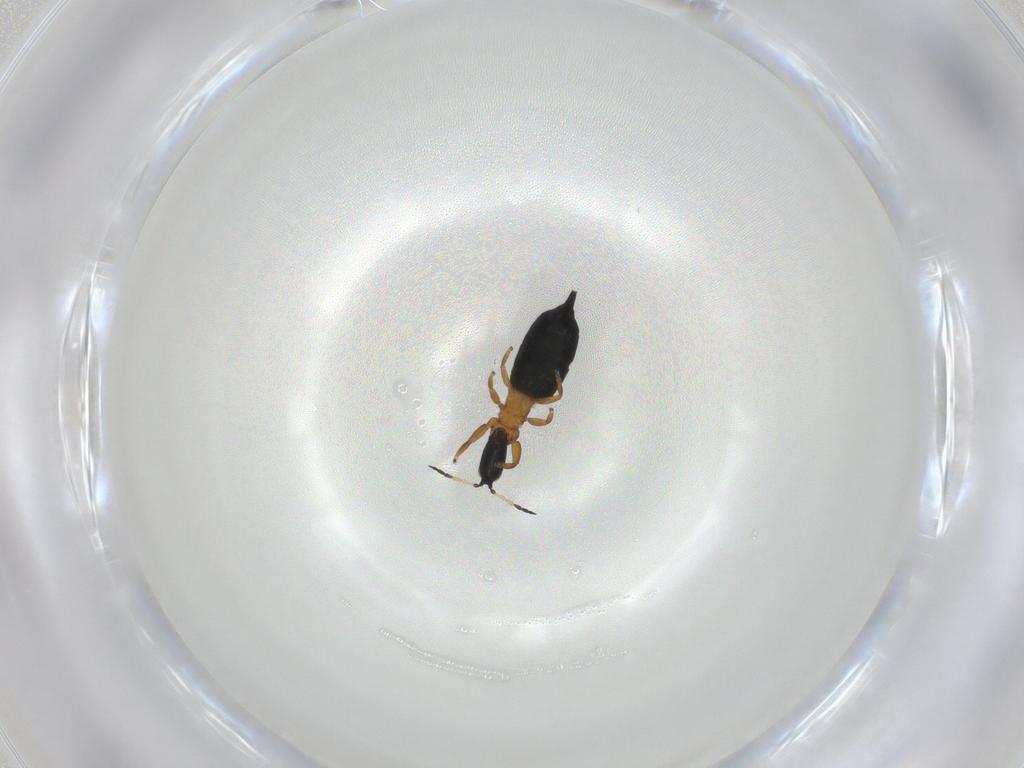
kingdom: Animalia
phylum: Arthropoda
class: Insecta
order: Thysanoptera
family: Phlaeothripidae
